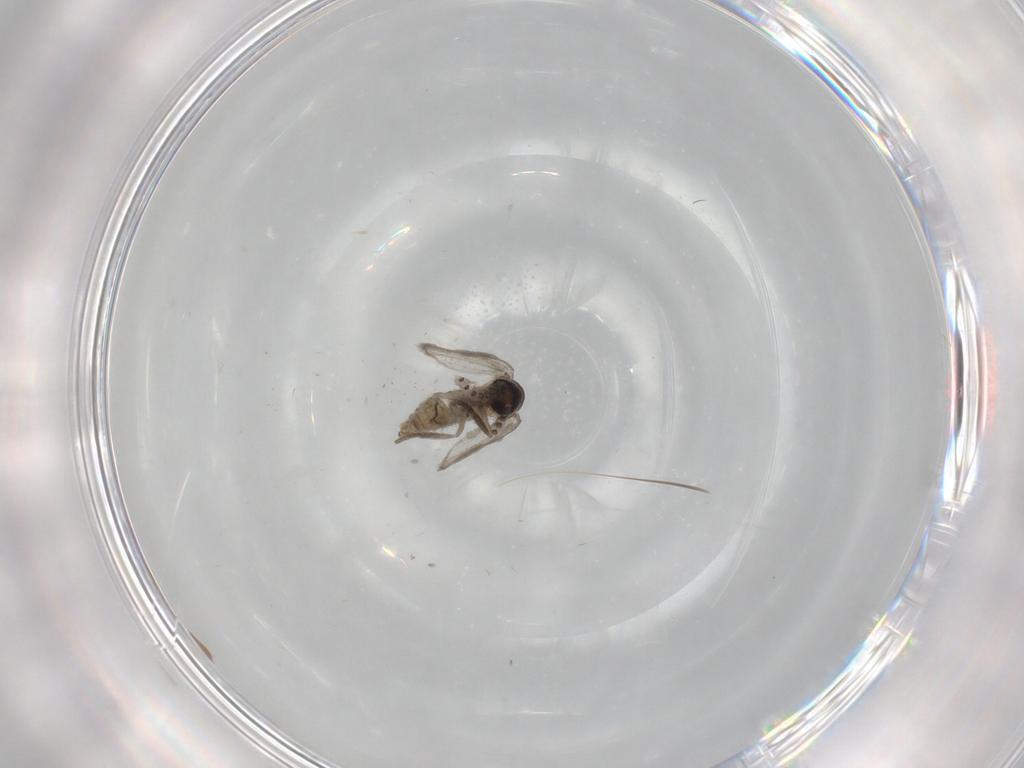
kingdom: Animalia
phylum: Arthropoda
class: Insecta
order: Diptera
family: Psychodidae
